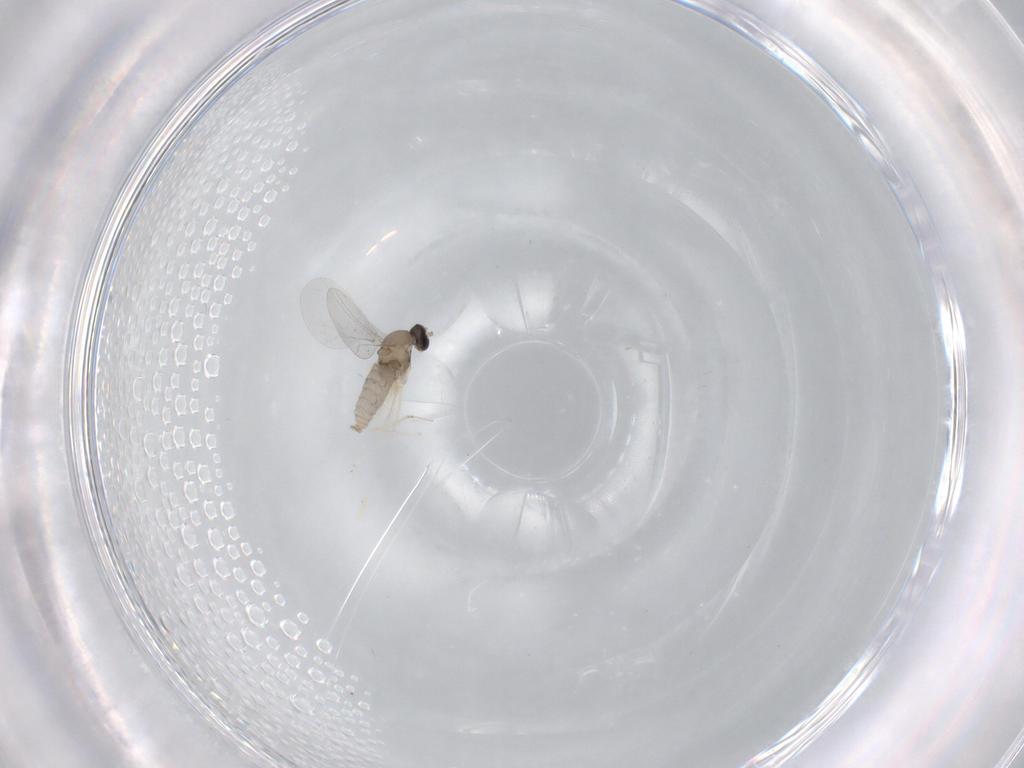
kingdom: Animalia
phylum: Arthropoda
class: Insecta
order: Diptera
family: Cecidomyiidae
